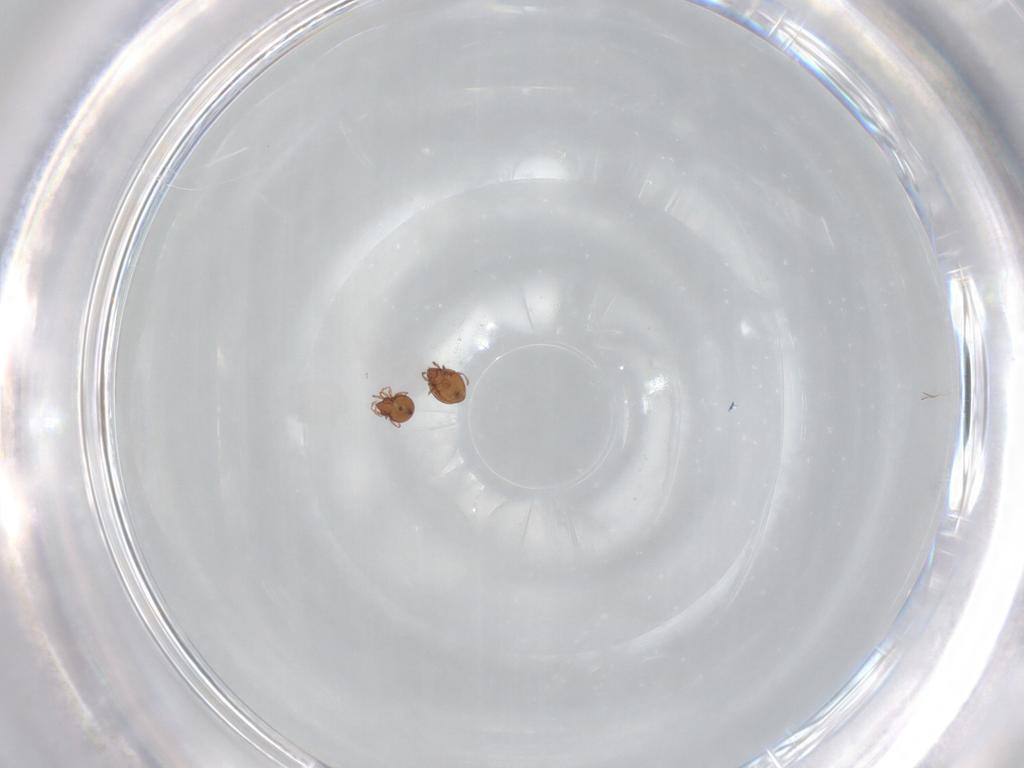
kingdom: Animalia
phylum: Arthropoda
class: Arachnida
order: Sarcoptiformes
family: Scheloribatidae
